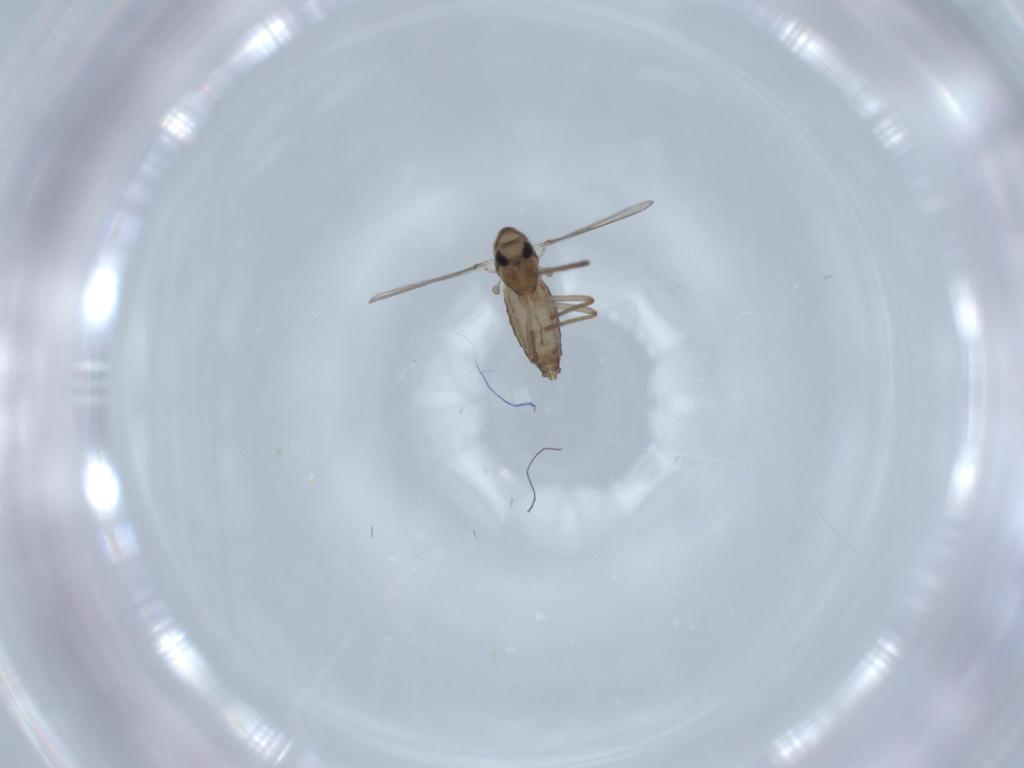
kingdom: Animalia
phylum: Arthropoda
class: Insecta
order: Diptera
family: Chironomidae
